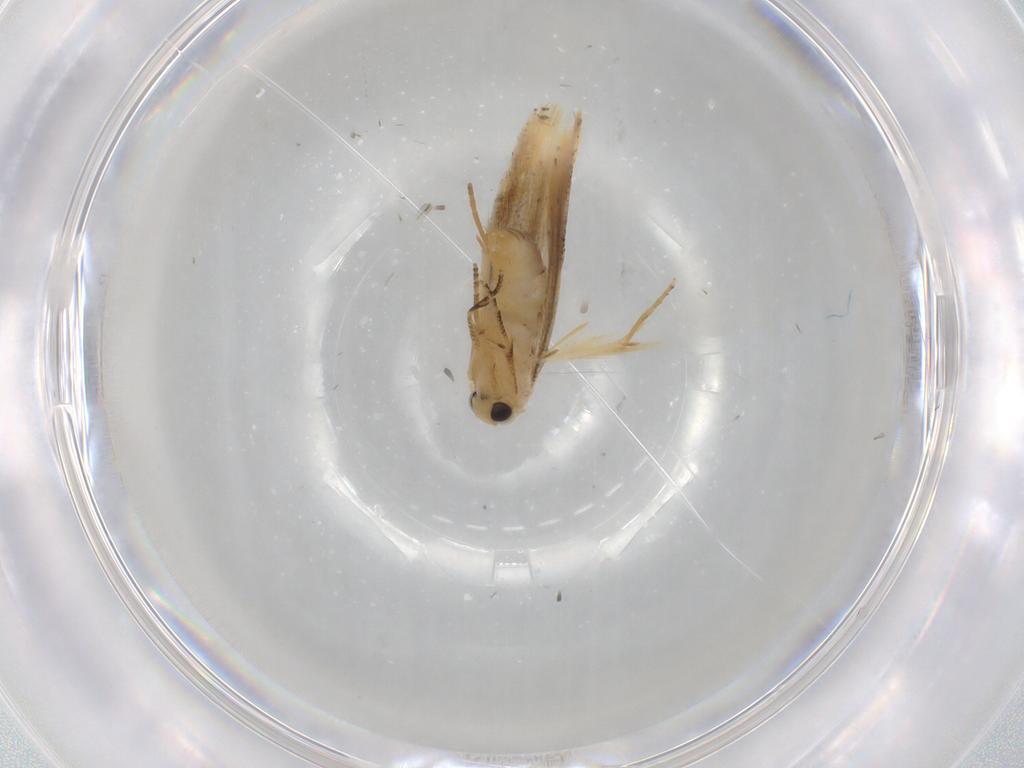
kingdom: Animalia
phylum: Arthropoda
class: Insecta
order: Lepidoptera
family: Bucculatricidae
